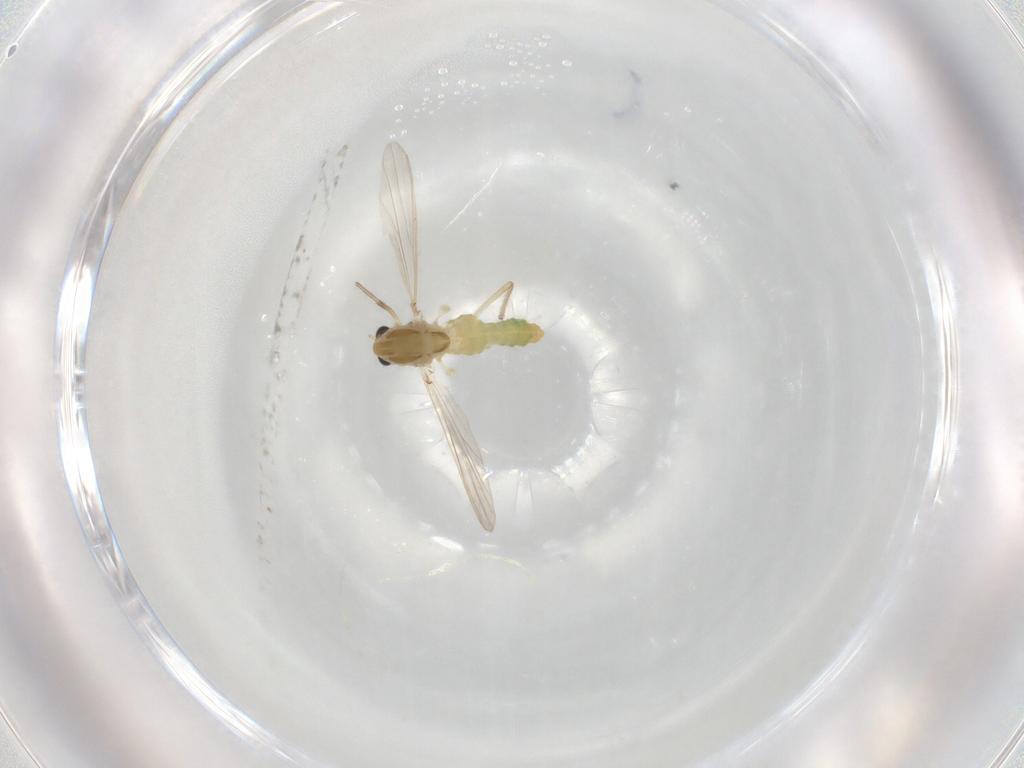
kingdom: Animalia
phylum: Arthropoda
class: Insecta
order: Diptera
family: Chironomidae
